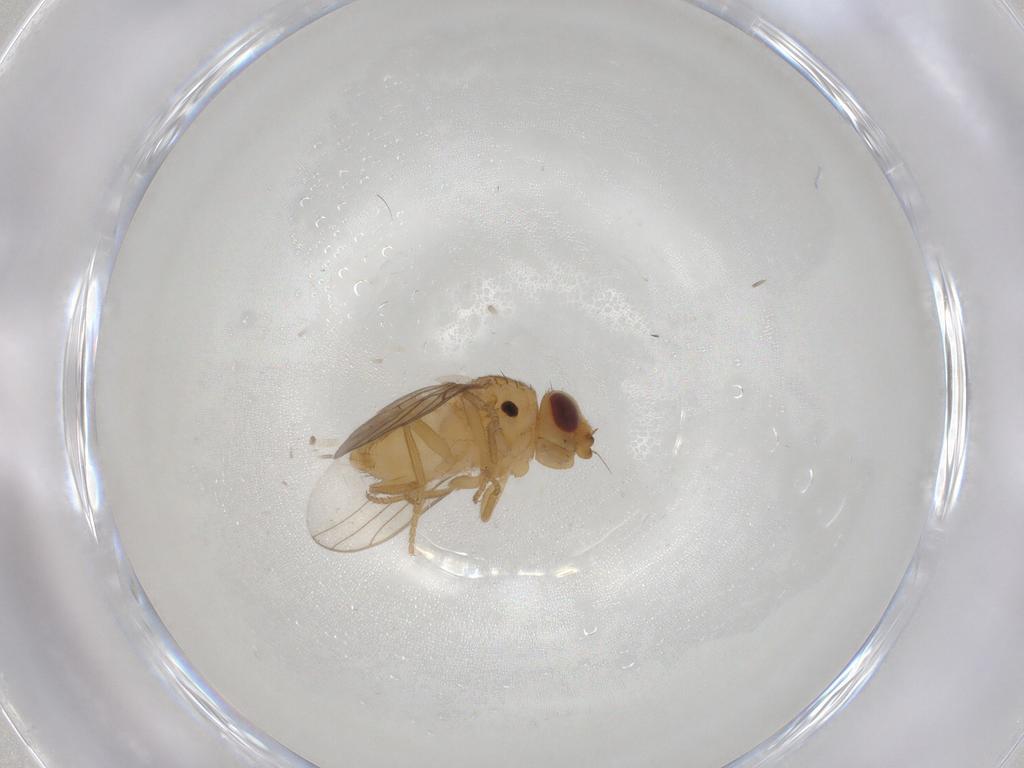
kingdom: Animalia
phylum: Arthropoda
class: Insecta
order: Diptera
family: Chloropidae
